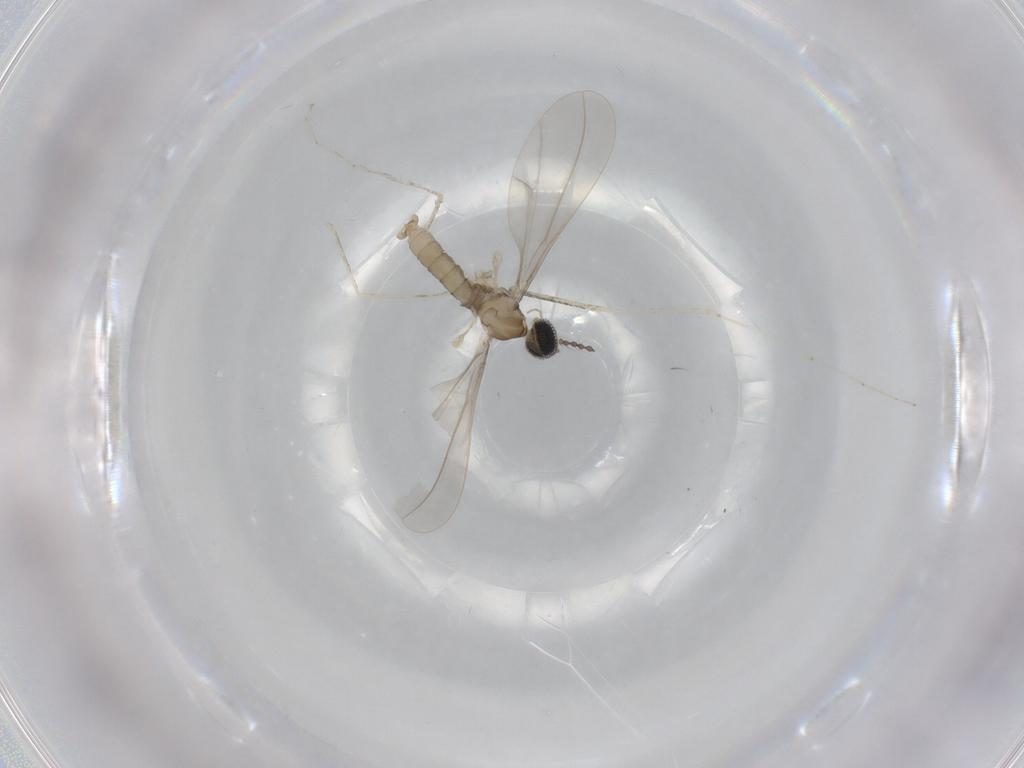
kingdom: Animalia
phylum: Arthropoda
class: Insecta
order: Diptera
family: Cecidomyiidae
